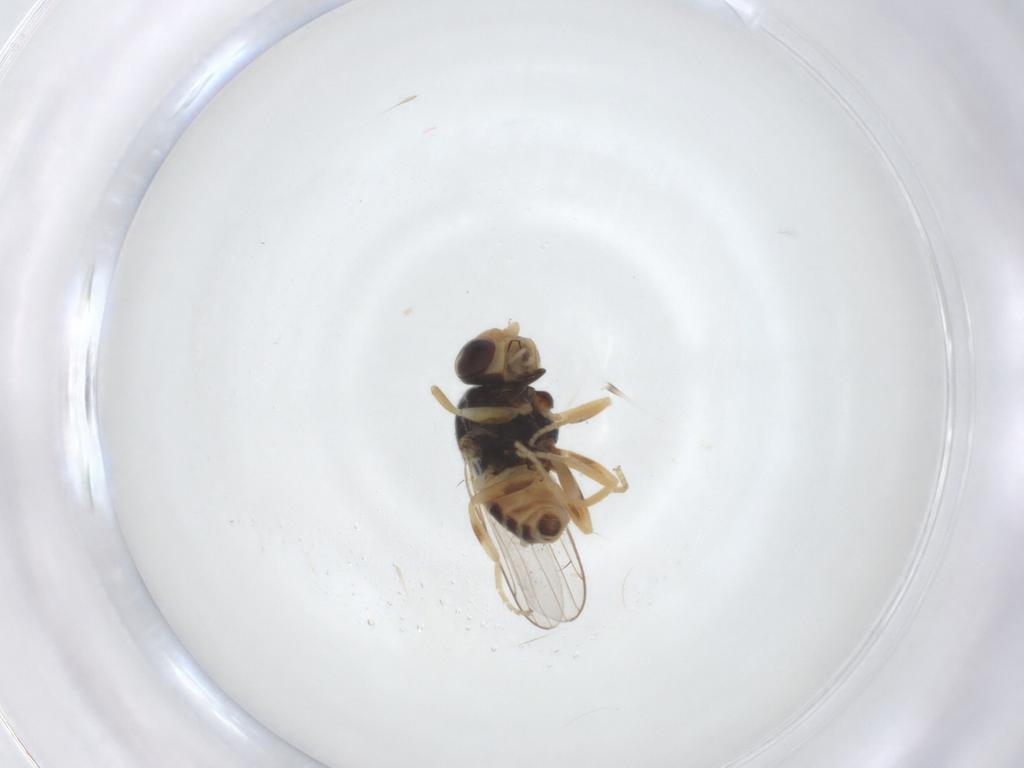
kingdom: Animalia
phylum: Arthropoda
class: Insecta
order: Diptera
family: Chloropidae
